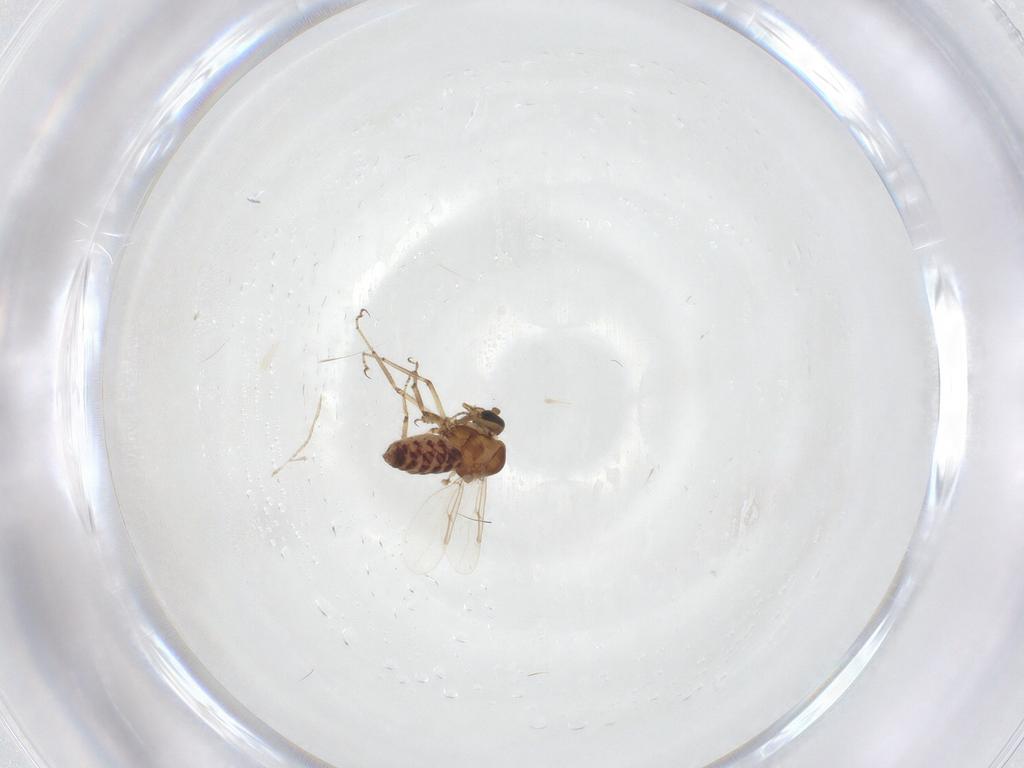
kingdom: Animalia
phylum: Arthropoda
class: Insecta
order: Diptera
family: Ceratopogonidae
